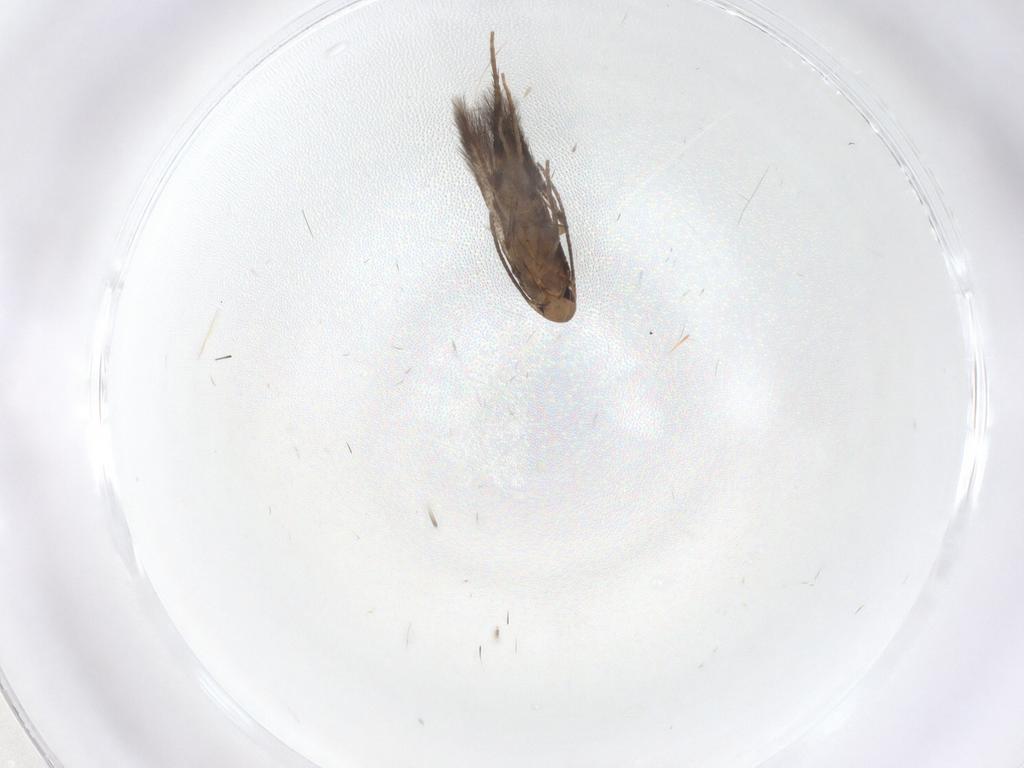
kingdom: Animalia
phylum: Arthropoda
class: Insecta
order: Lepidoptera
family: Gelechiidae
